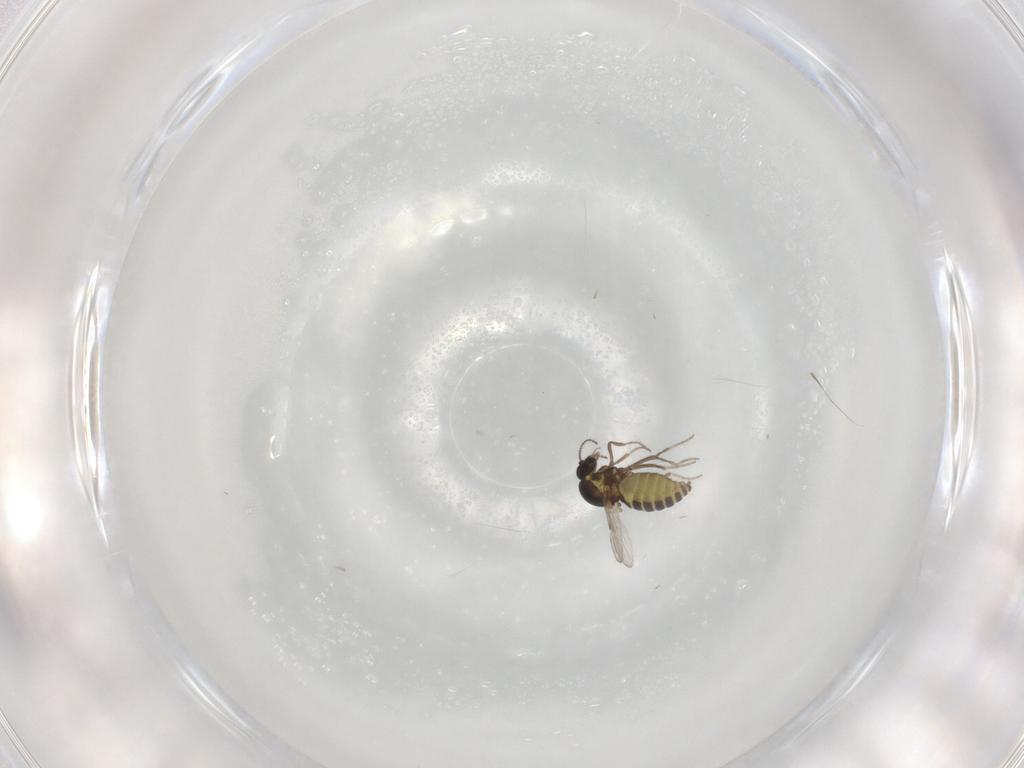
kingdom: Animalia
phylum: Arthropoda
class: Insecta
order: Diptera
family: Ceratopogonidae
